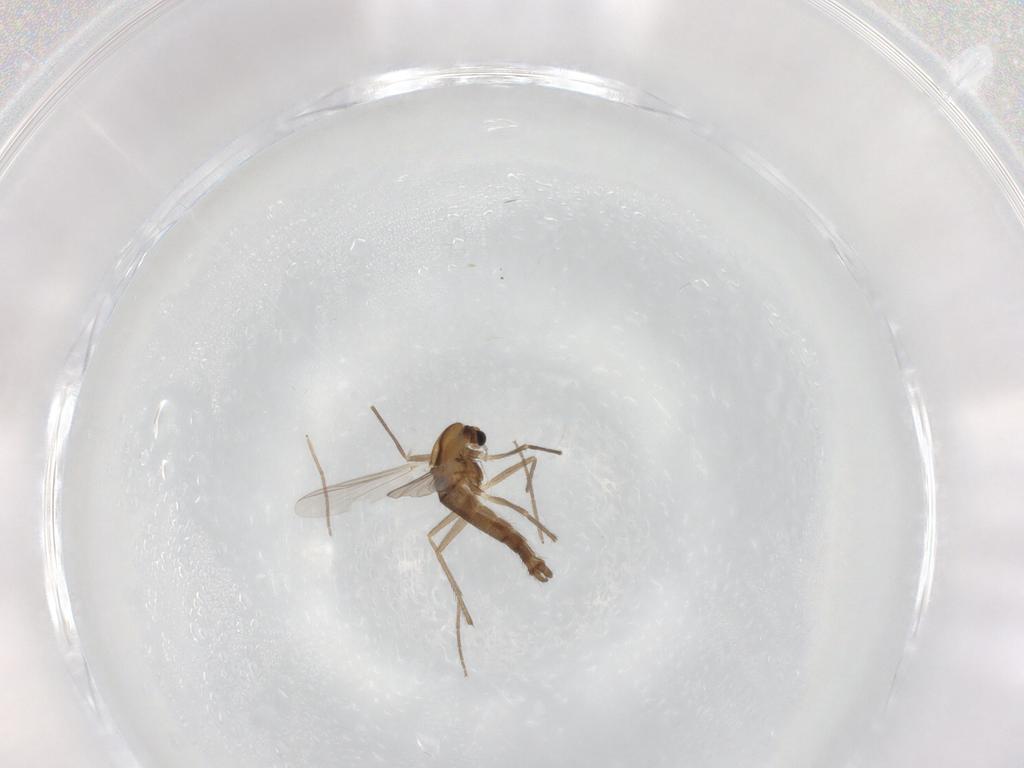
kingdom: Animalia
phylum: Arthropoda
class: Insecta
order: Diptera
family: Chironomidae
